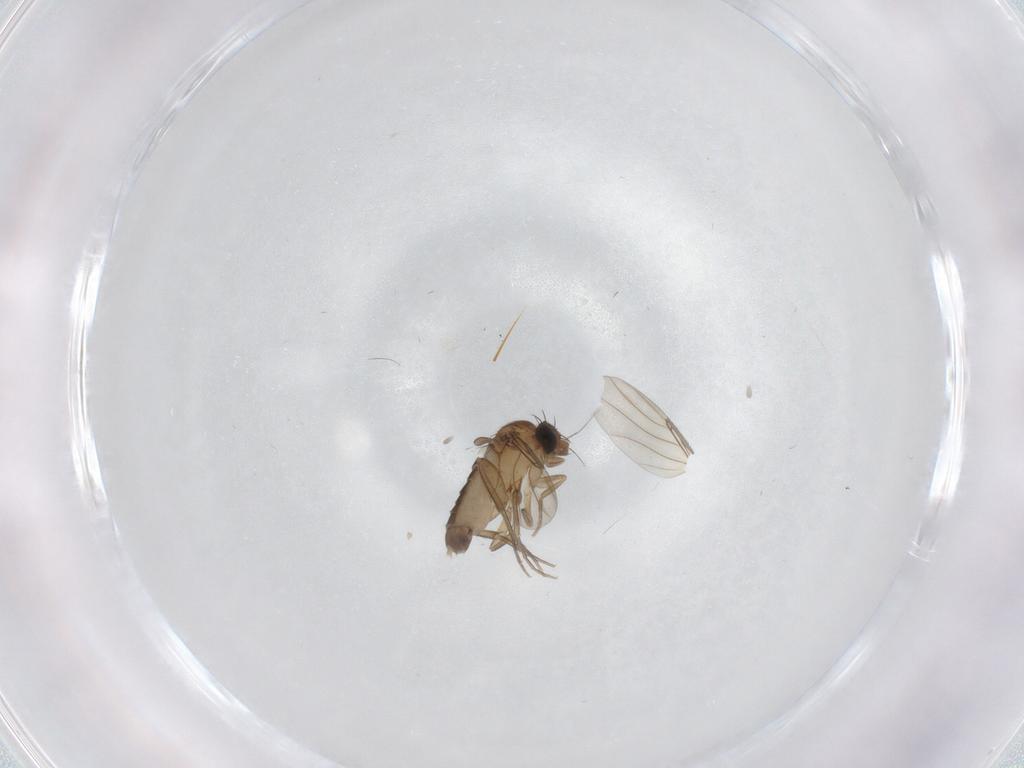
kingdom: Animalia
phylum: Arthropoda
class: Insecta
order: Diptera
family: Phoridae
